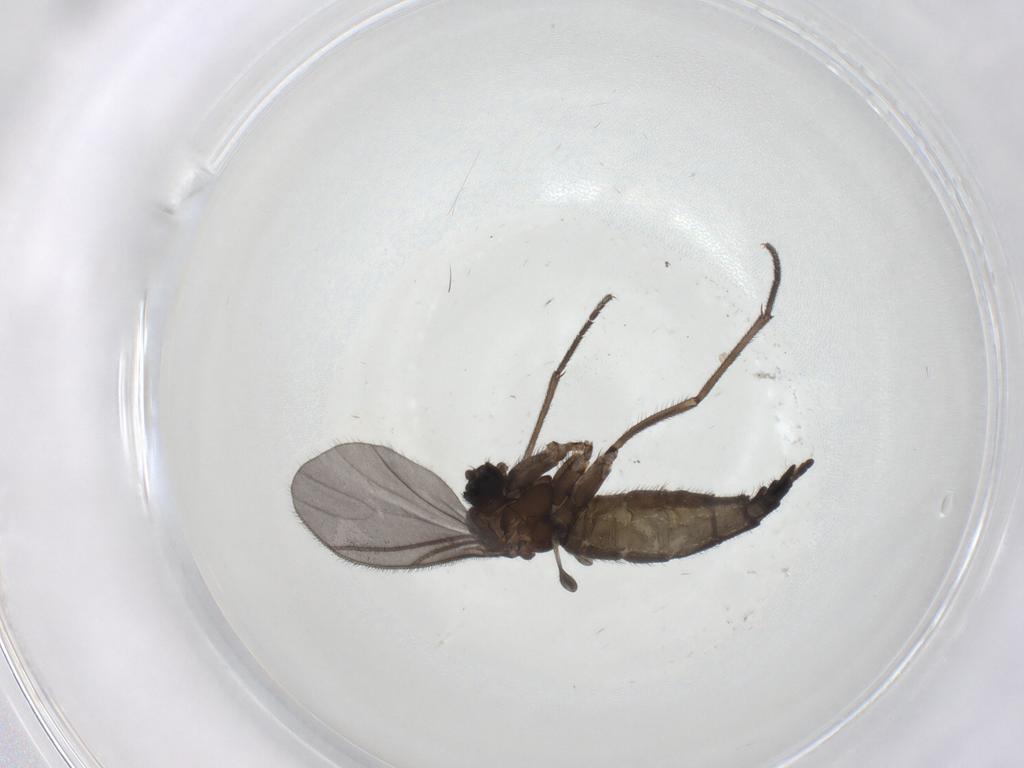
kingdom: Animalia
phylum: Arthropoda
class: Insecta
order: Diptera
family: Sciaridae
